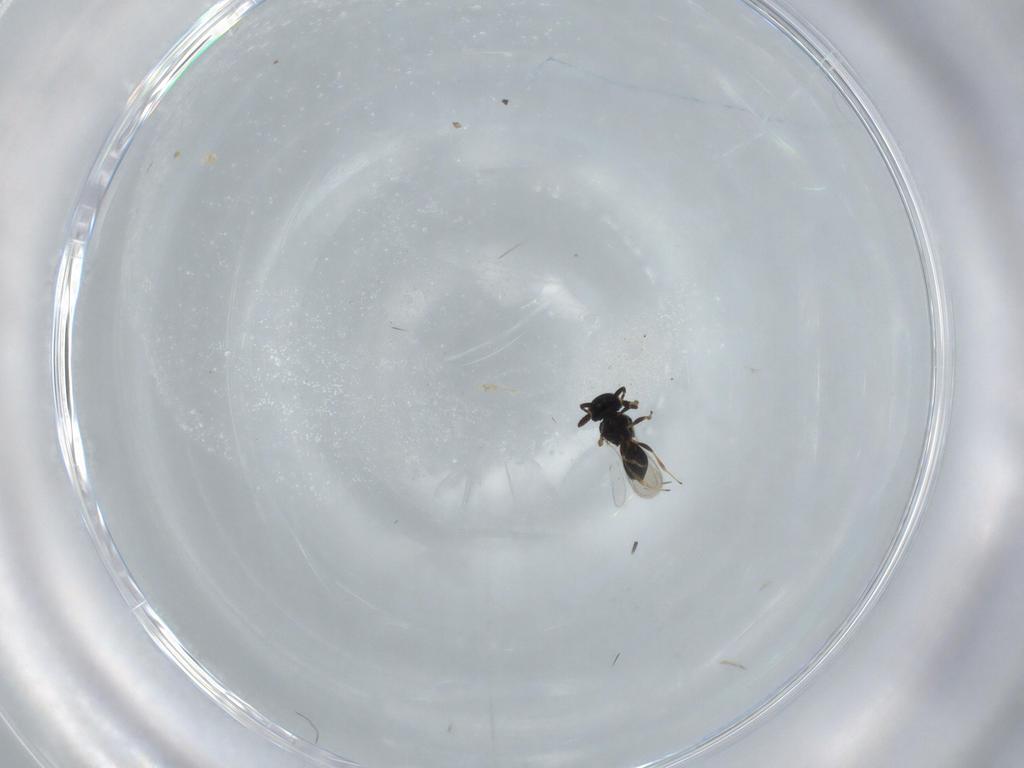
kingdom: Animalia
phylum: Arthropoda
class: Insecta
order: Hymenoptera
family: Scelionidae
